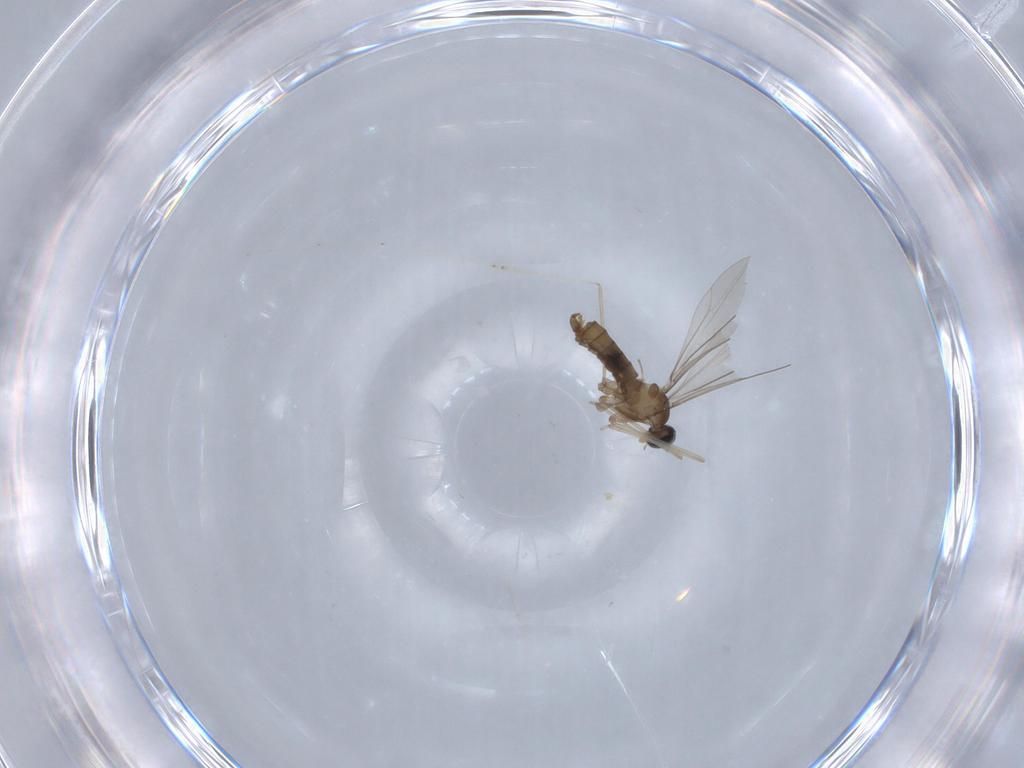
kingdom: Animalia
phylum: Arthropoda
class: Insecta
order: Diptera
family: Cecidomyiidae
